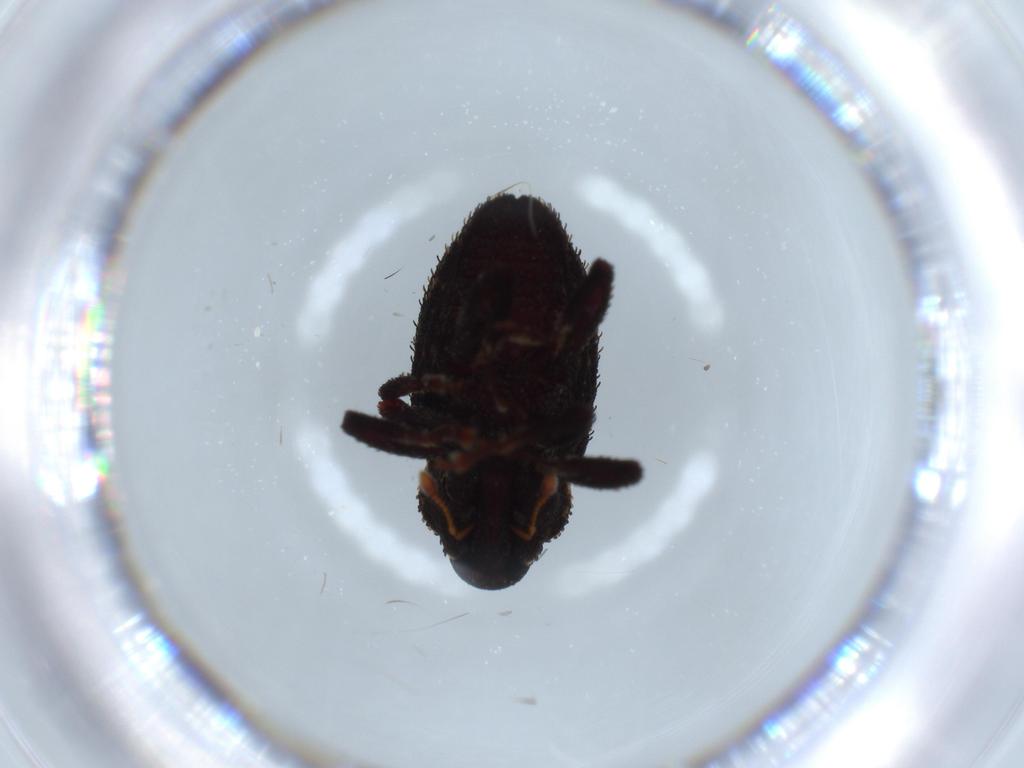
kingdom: Animalia
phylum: Arthropoda
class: Insecta
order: Coleoptera
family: Curculionidae
